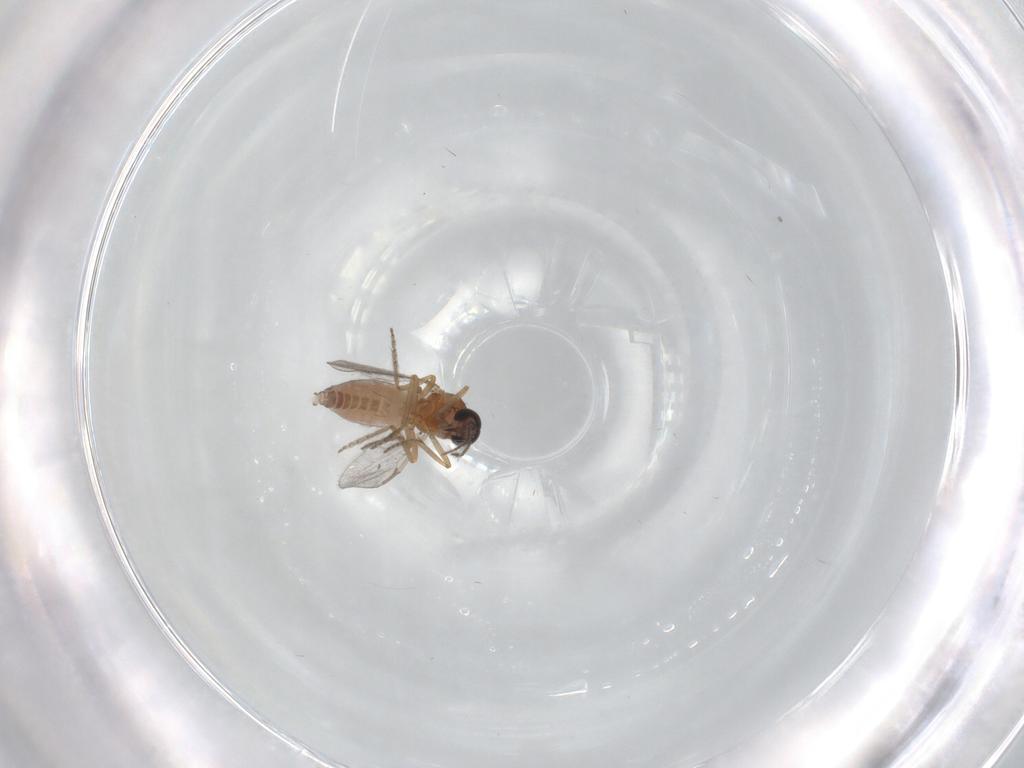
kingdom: Animalia
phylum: Arthropoda
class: Insecta
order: Diptera
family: Ceratopogonidae
